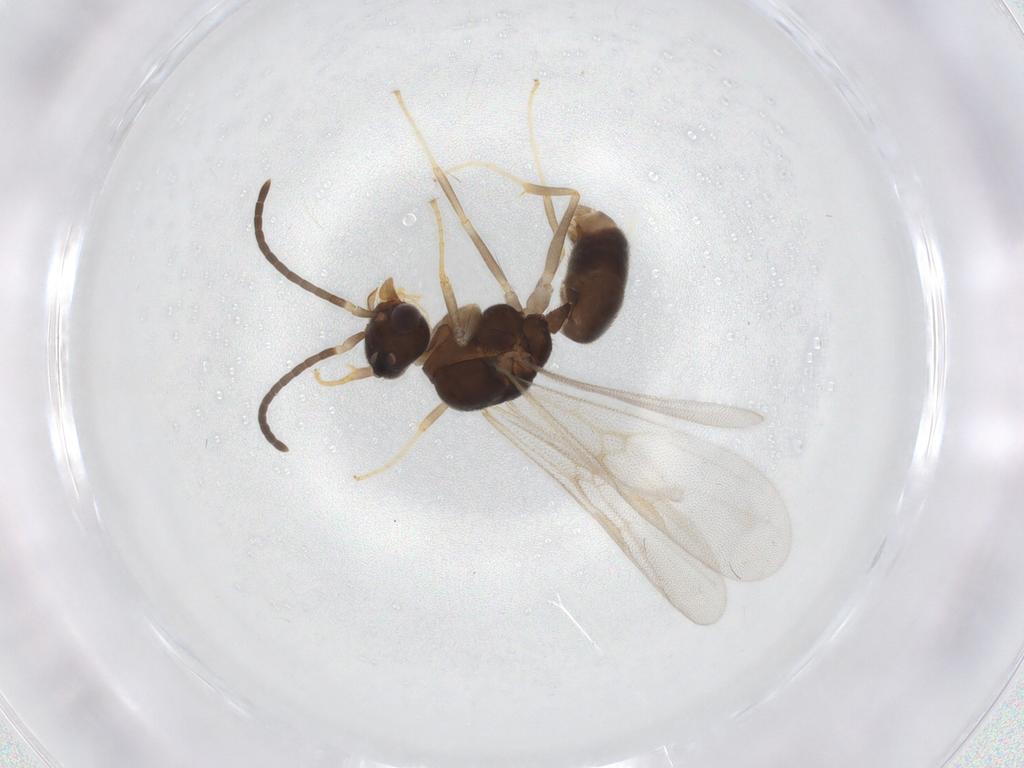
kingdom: Animalia
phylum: Arthropoda
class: Insecta
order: Hymenoptera
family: Formicidae
